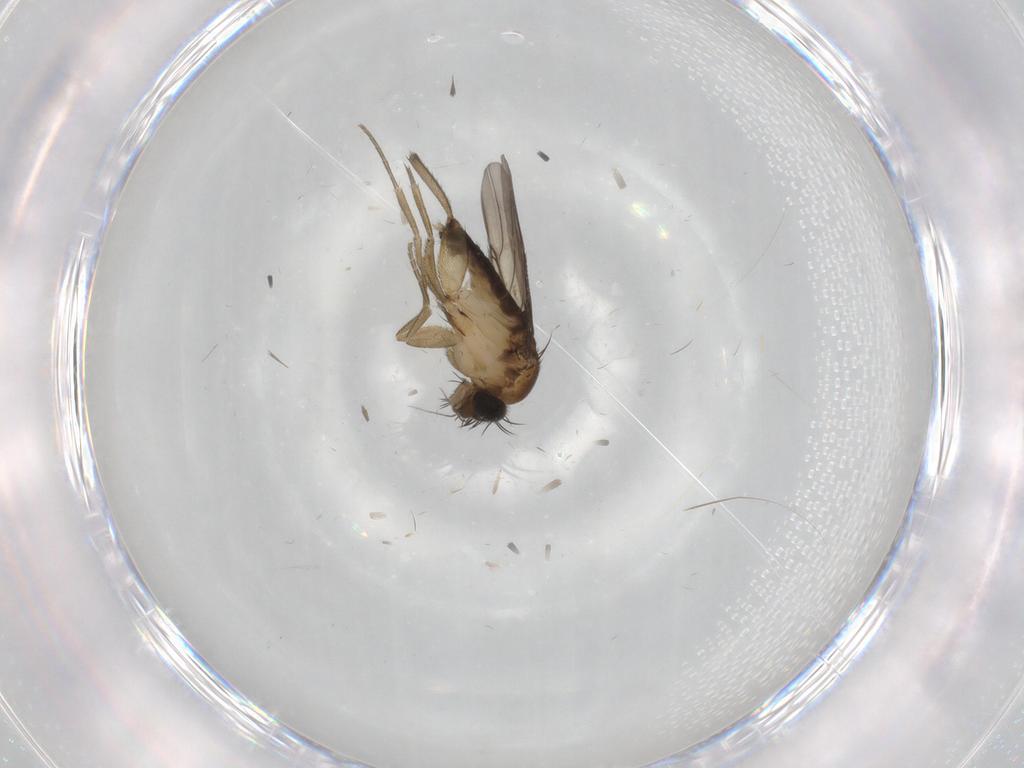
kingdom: Animalia
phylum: Arthropoda
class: Insecta
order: Diptera
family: Chironomidae
